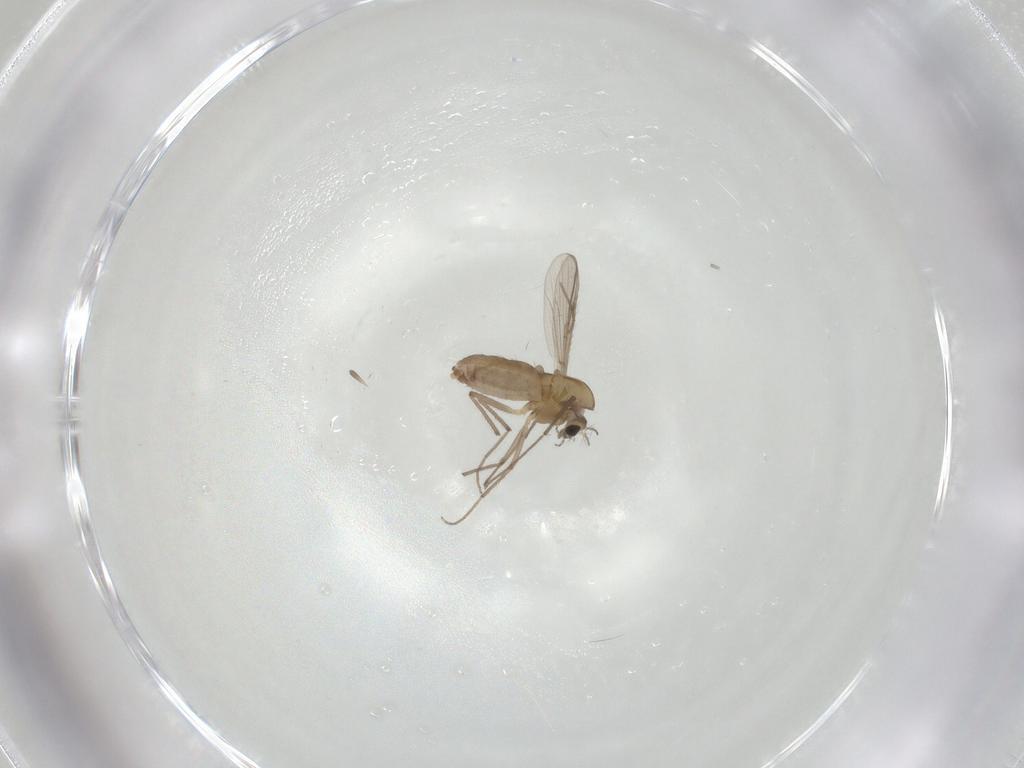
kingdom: Animalia
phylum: Arthropoda
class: Insecta
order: Diptera
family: Chironomidae
